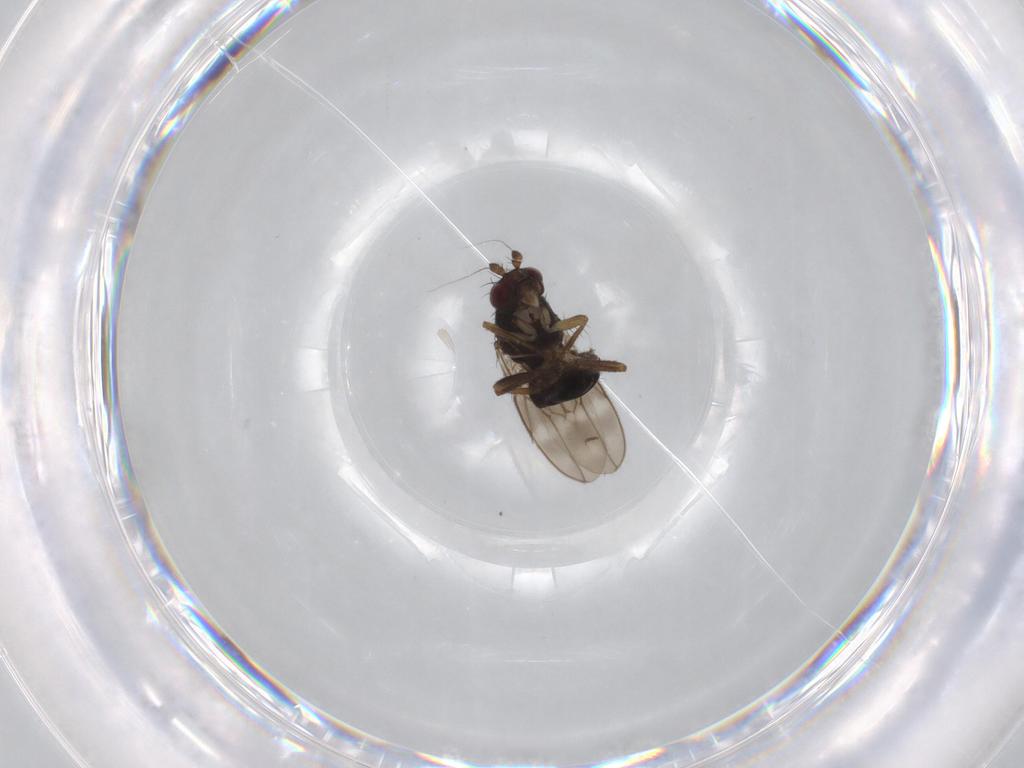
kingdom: Animalia
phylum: Arthropoda
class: Insecta
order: Diptera
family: Sphaeroceridae
